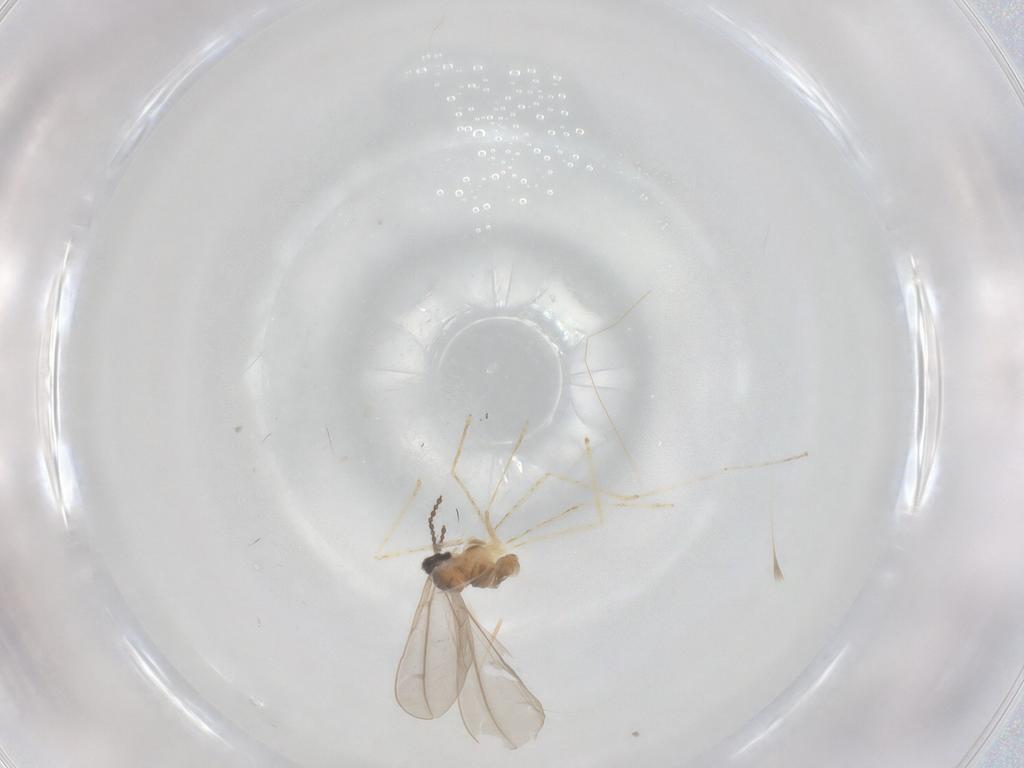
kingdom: Animalia
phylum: Arthropoda
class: Insecta
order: Diptera
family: Cecidomyiidae
